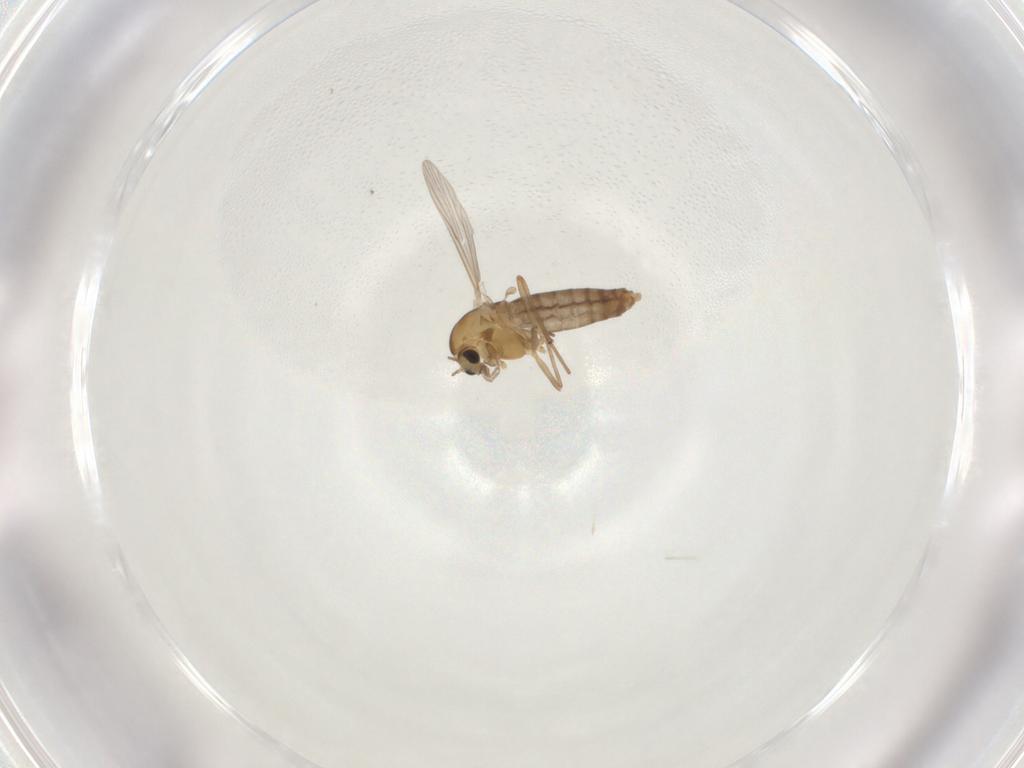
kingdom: Animalia
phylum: Arthropoda
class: Insecta
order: Diptera
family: Chironomidae
